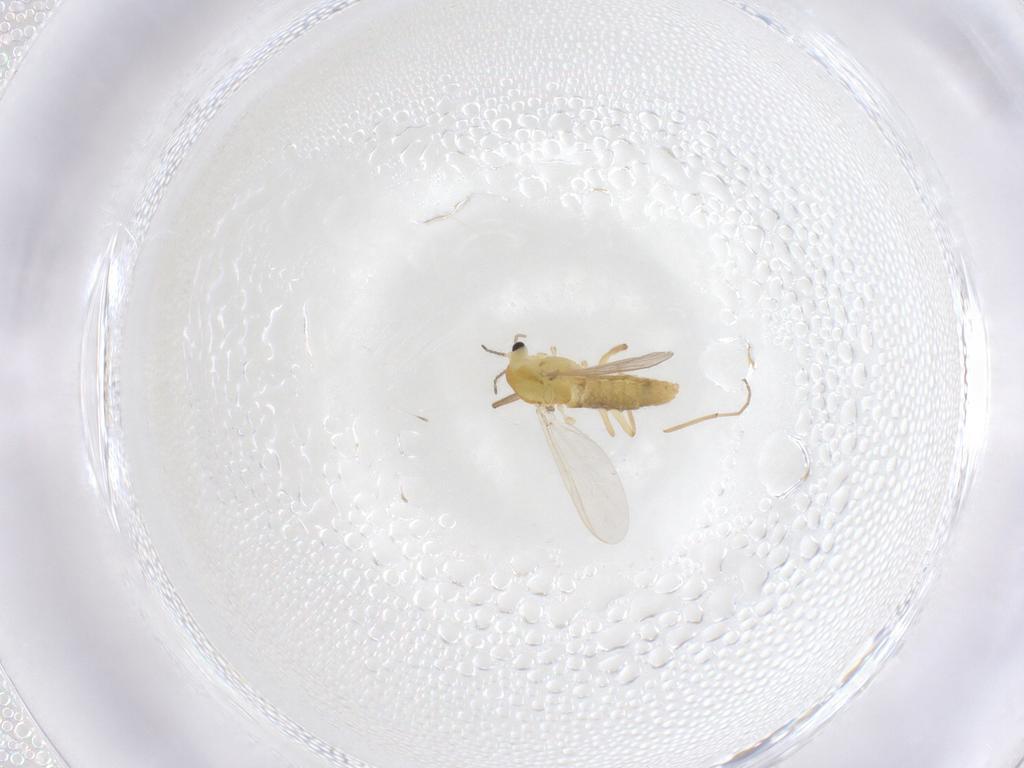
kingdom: Animalia
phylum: Arthropoda
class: Insecta
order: Diptera
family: Chironomidae
